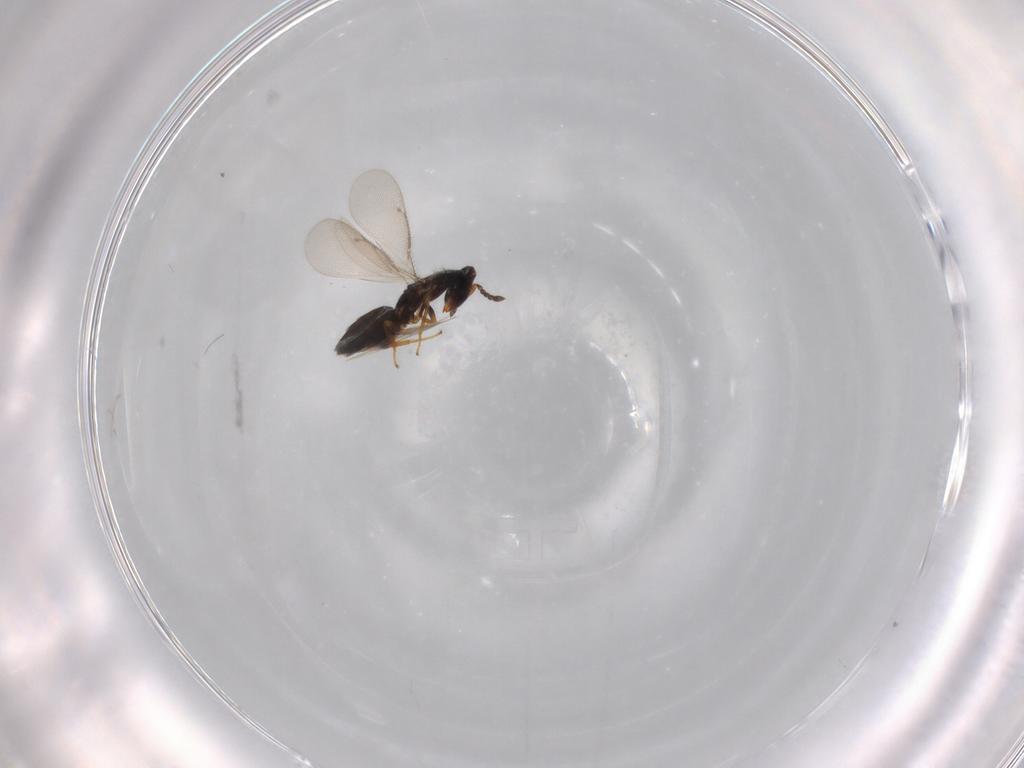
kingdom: Animalia
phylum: Arthropoda
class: Insecta
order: Hymenoptera
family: Eulophidae
